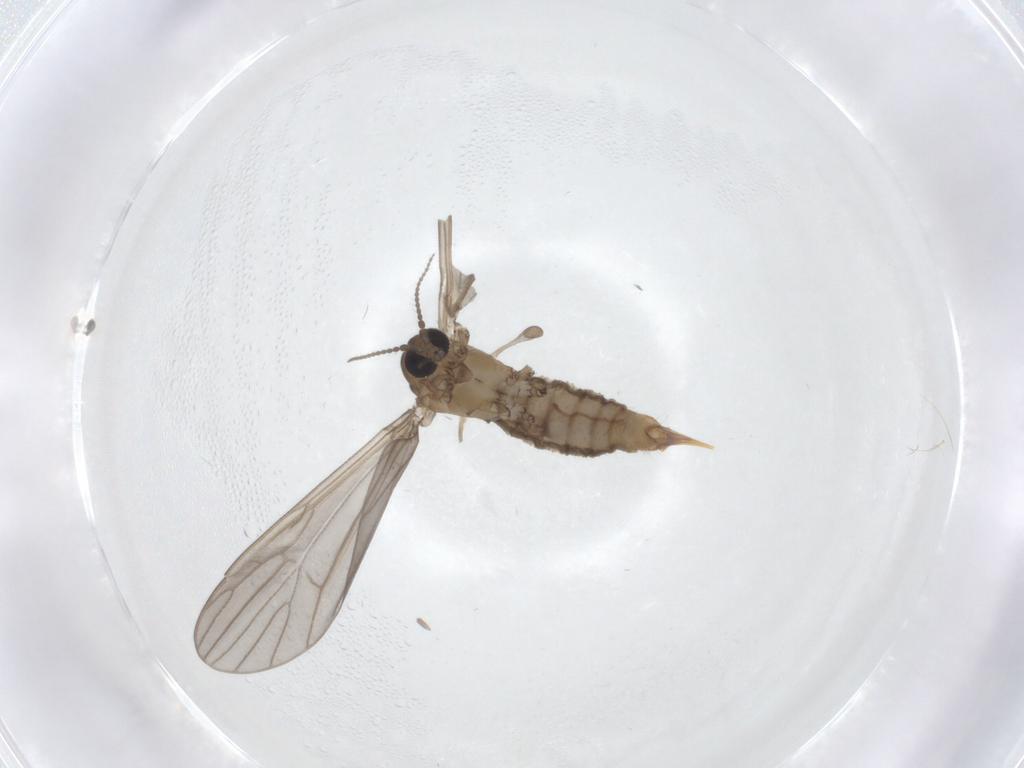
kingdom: Animalia
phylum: Arthropoda
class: Insecta
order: Diptera
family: Limoniidae
